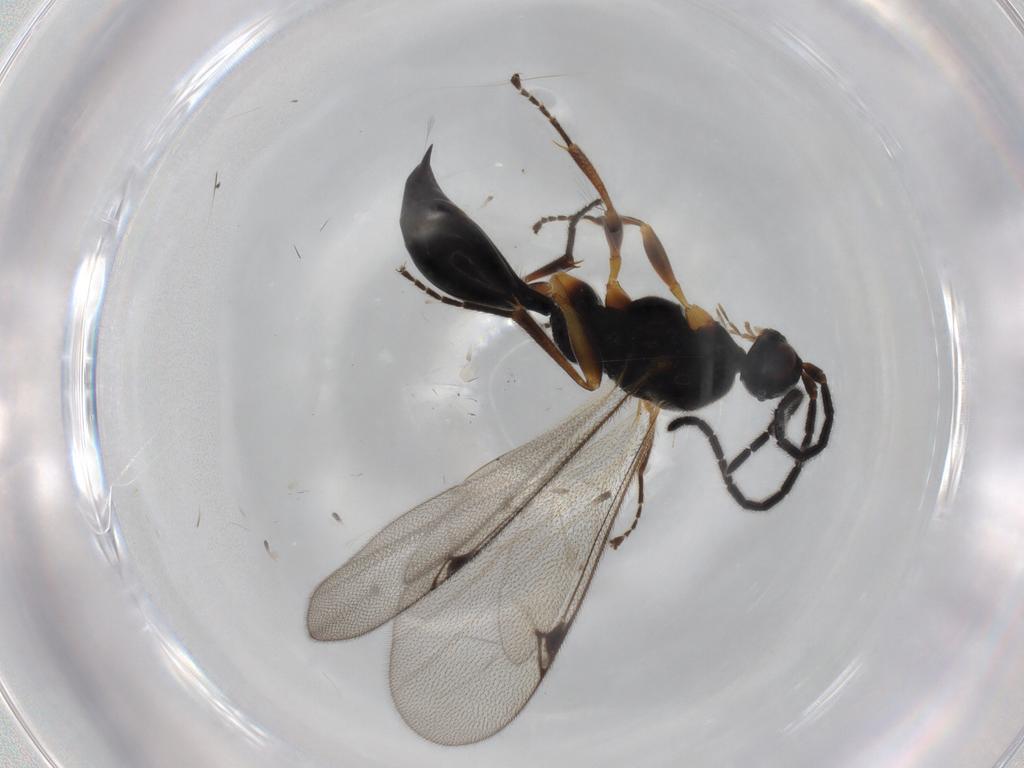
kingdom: Animalia
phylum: Arthropoda
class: Insecta
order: Hymenoptera
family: Proctotrupidae
